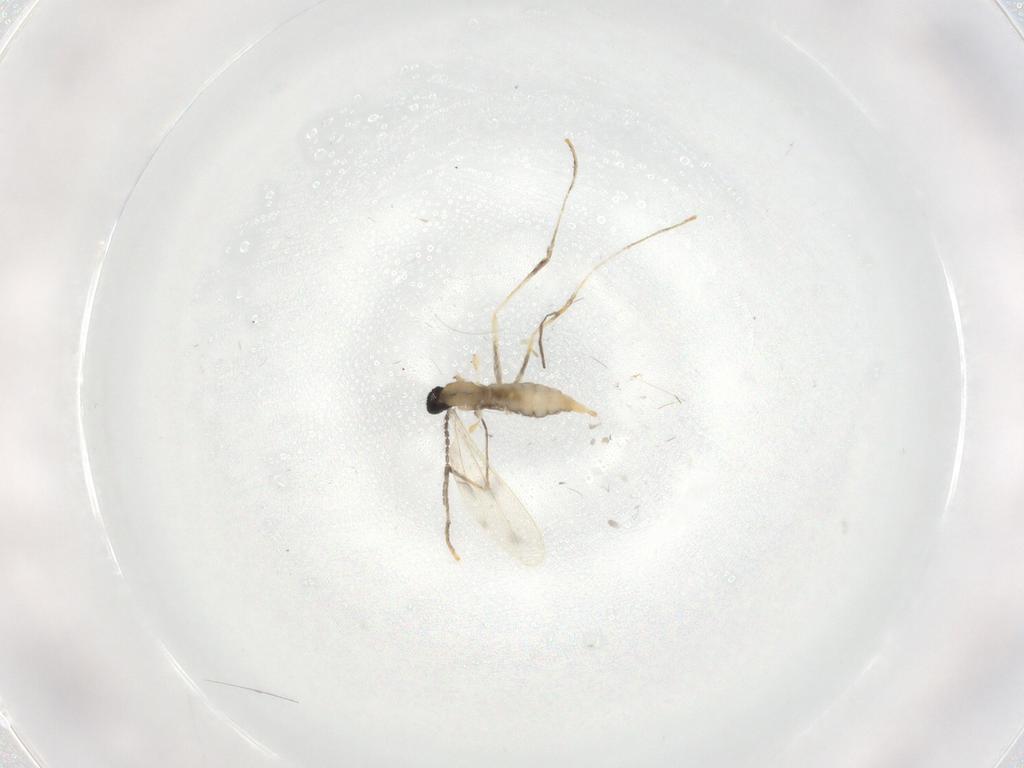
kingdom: Animalia
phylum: Arthropoda
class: Insecta
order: Diptera
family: Cecidomyiidae
